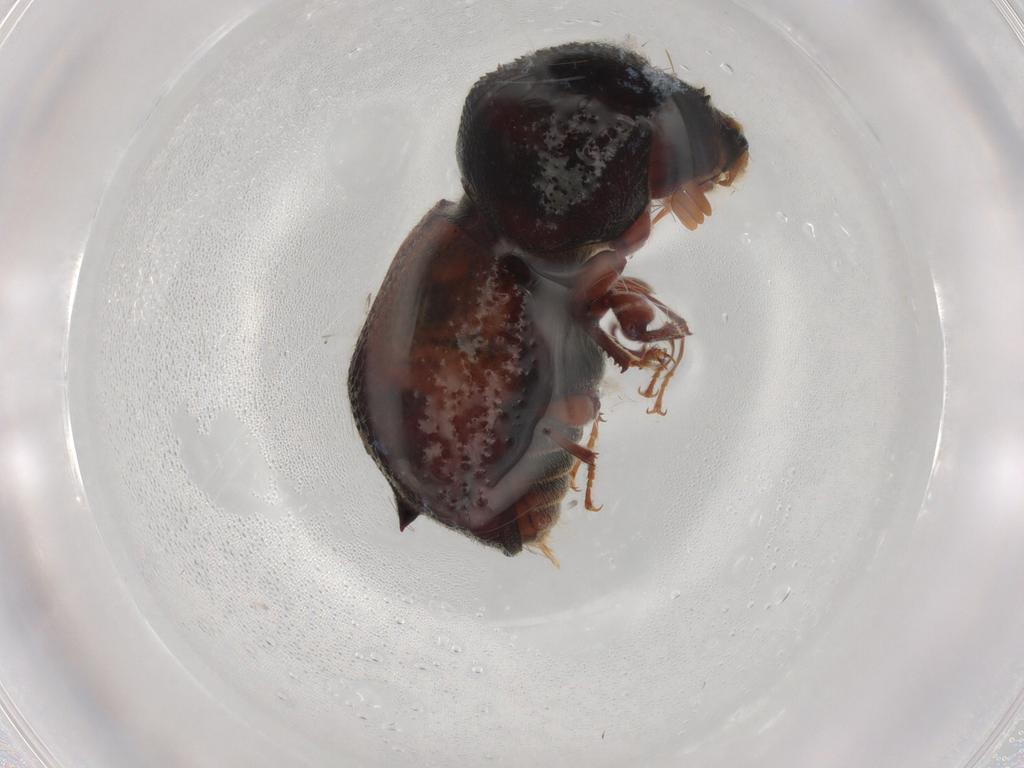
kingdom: Animalia
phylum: Arthropoda
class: Insecta
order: Coleoptera
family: Bostrichidae
